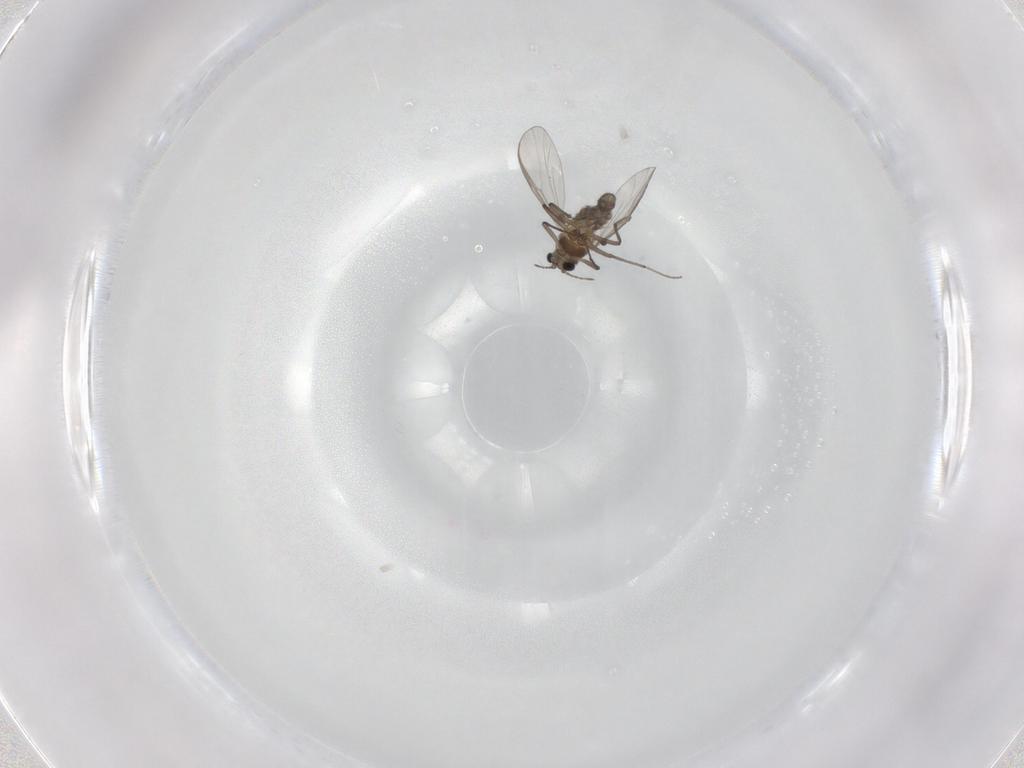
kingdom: Animalia
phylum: Arthropoda
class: Insecta
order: Diptera
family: Chironomidae
